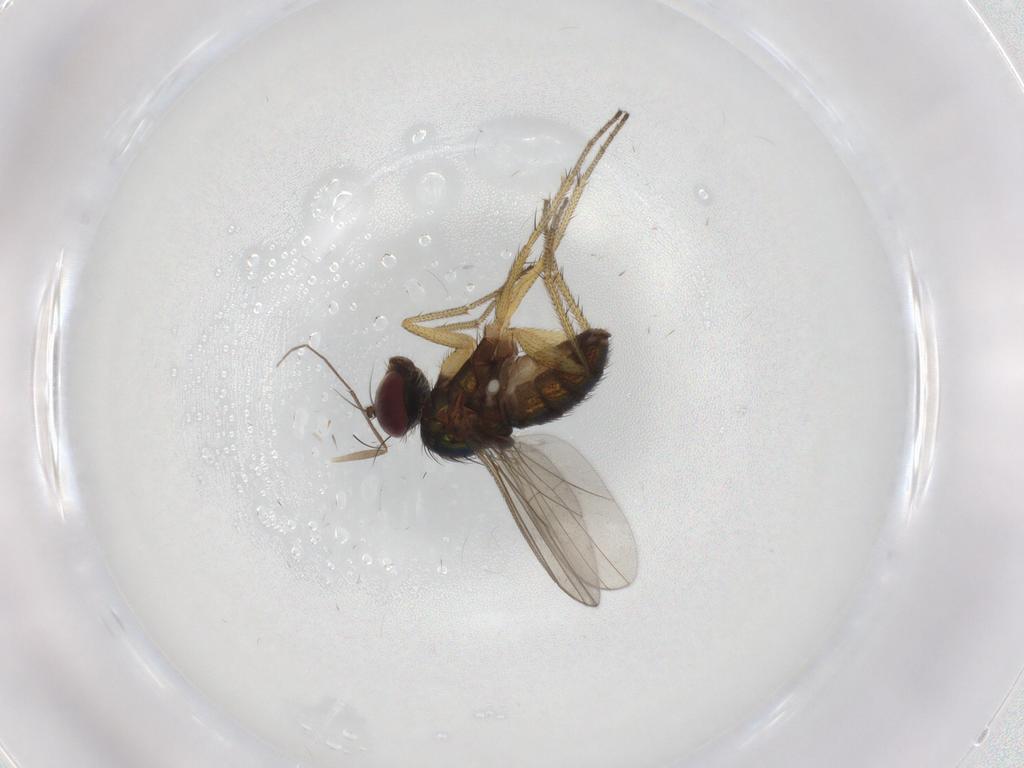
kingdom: Animalia
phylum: Arthropoda
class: Insecta
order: Diptera
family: Dolichopodidae
